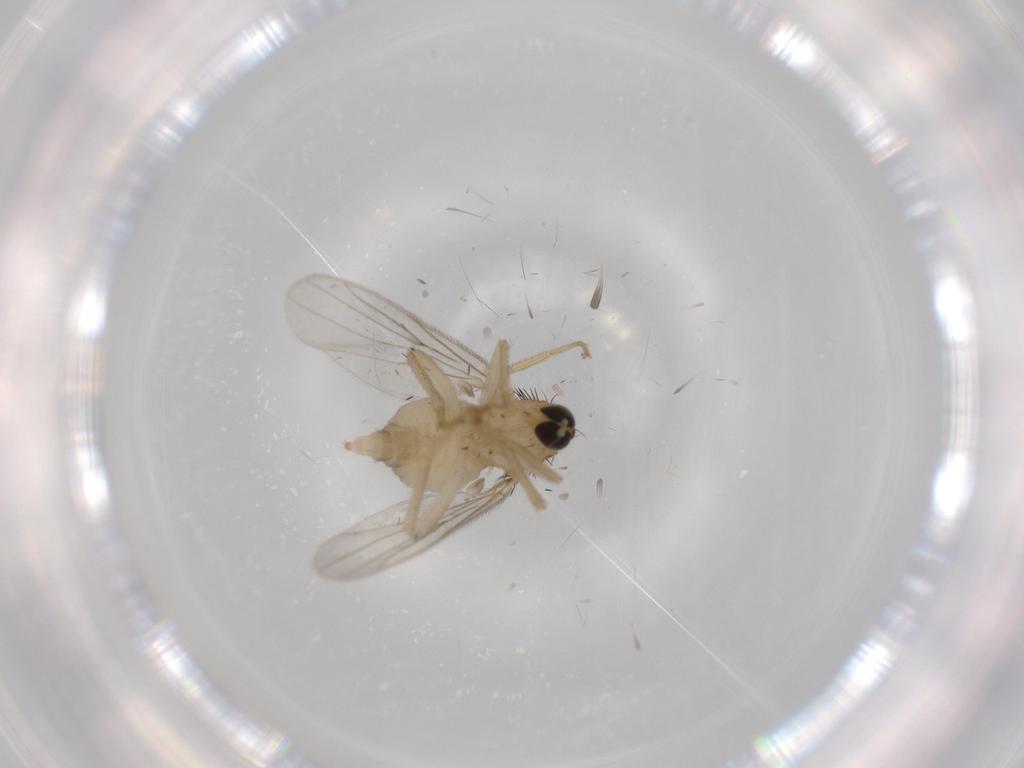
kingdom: Animalia
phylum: Arthropoda
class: Insecta
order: Diptera
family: Hybotidae
